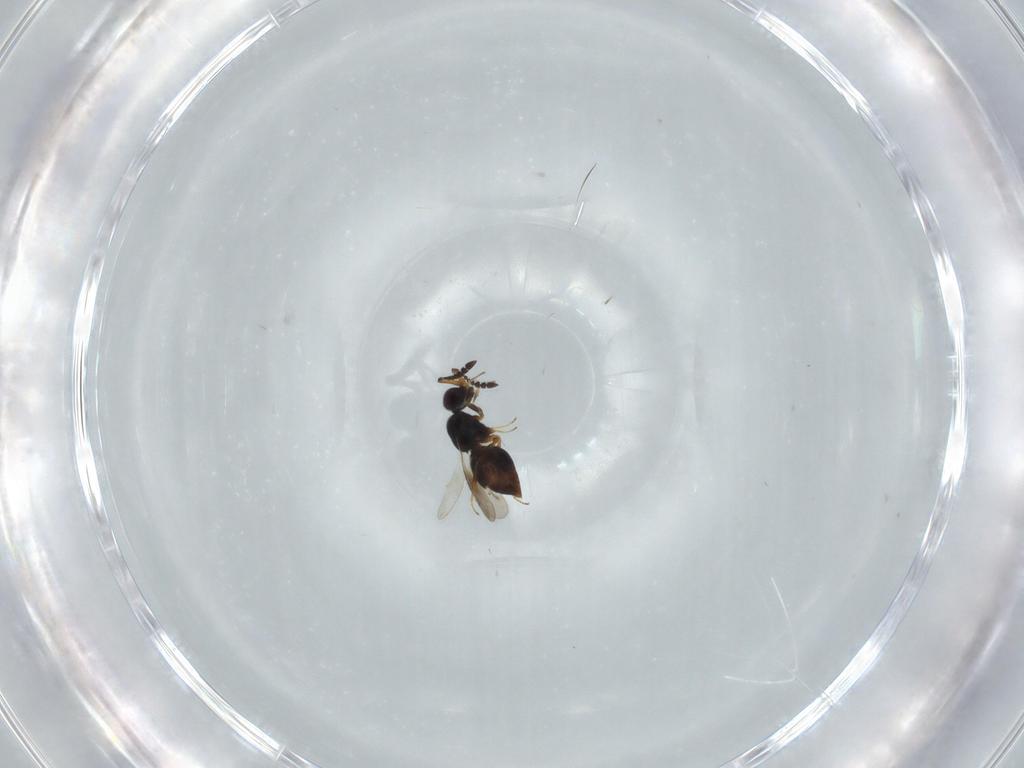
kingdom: Animalia
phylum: Arthropoda
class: Insecta
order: Hymenoptera
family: Ceraphronidae
